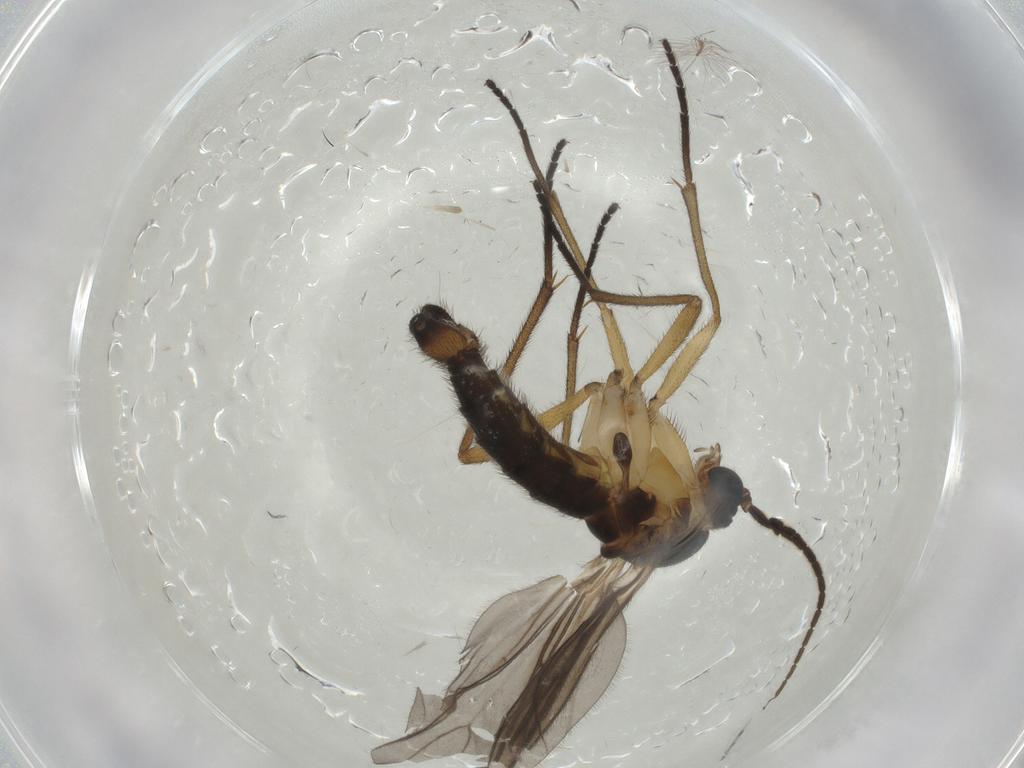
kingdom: Animalia
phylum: Arthropoda
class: Insecta
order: Diptera
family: Sciaridae
